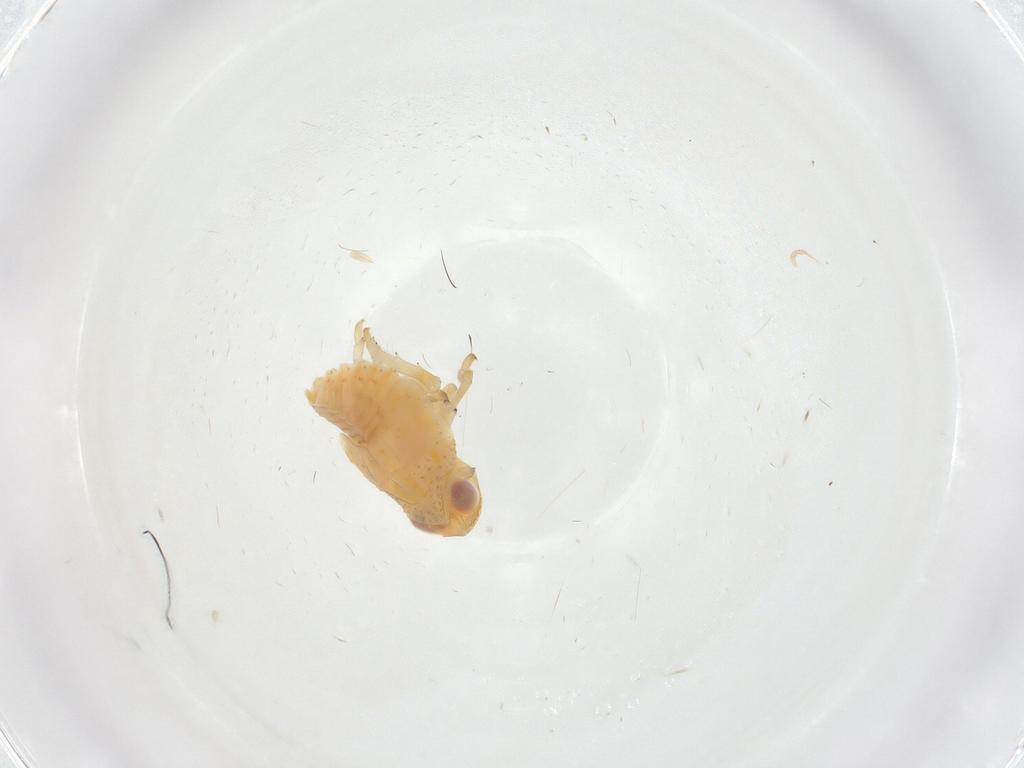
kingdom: Animalia
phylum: Arthropoda
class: Insecta
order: Hemiptera
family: Fulgoroidea_incertae_sedis
